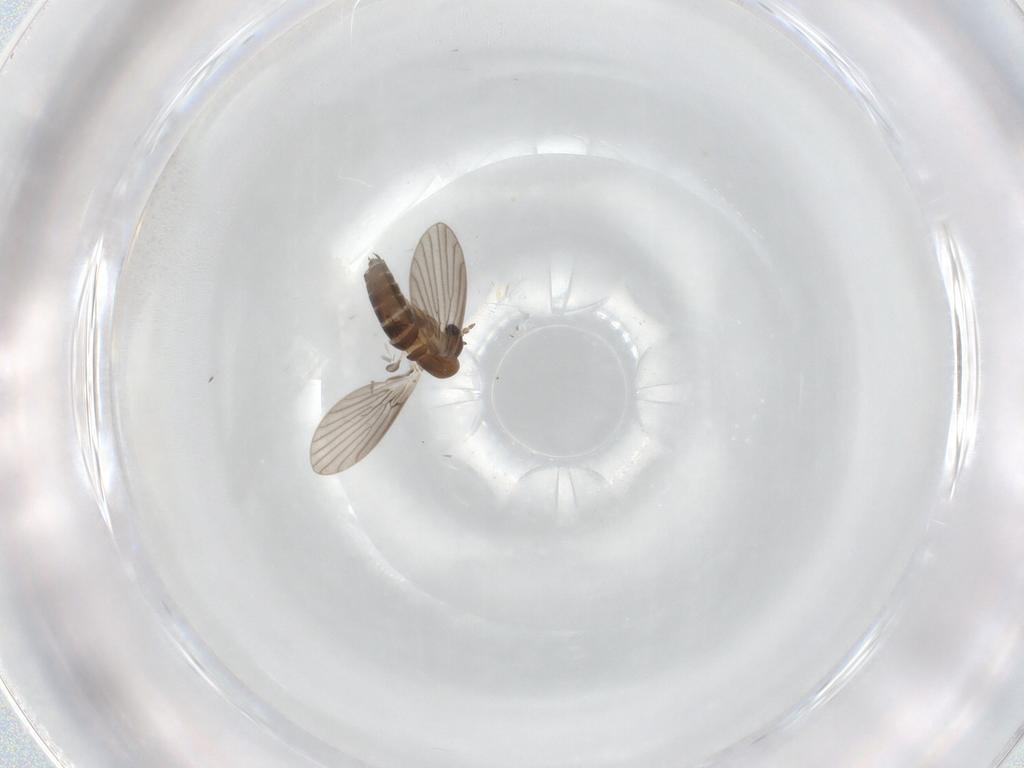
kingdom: Animalia
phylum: Arthropoda
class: Insecta
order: Diptera
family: Psychodidae
